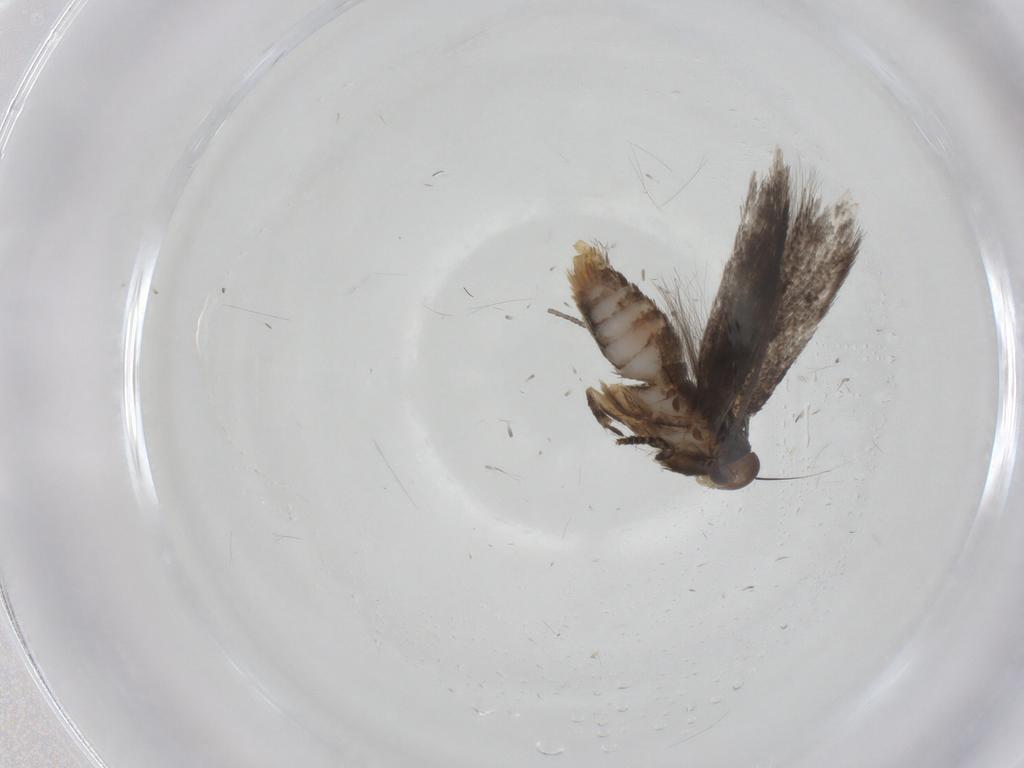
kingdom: Animalia
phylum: Arthropoda
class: Insecta
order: Lepidoptera
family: Elachistidae
